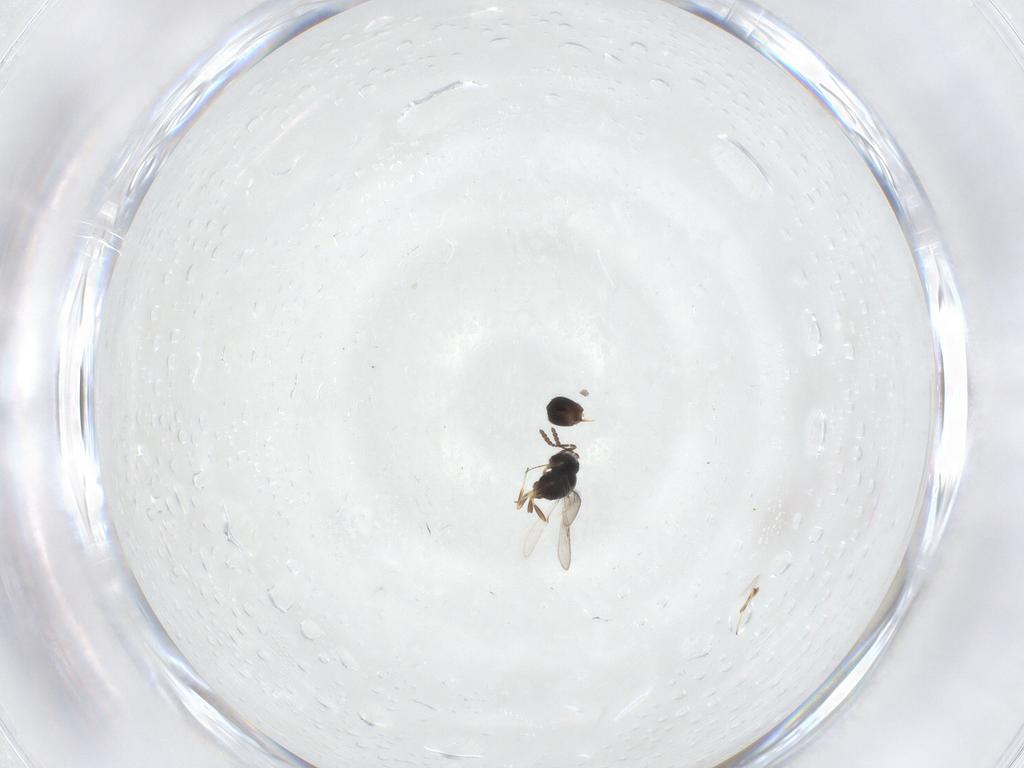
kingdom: Animalia
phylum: Arthropoda
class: Insecta
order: Hymenoptera
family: Scelionidae
